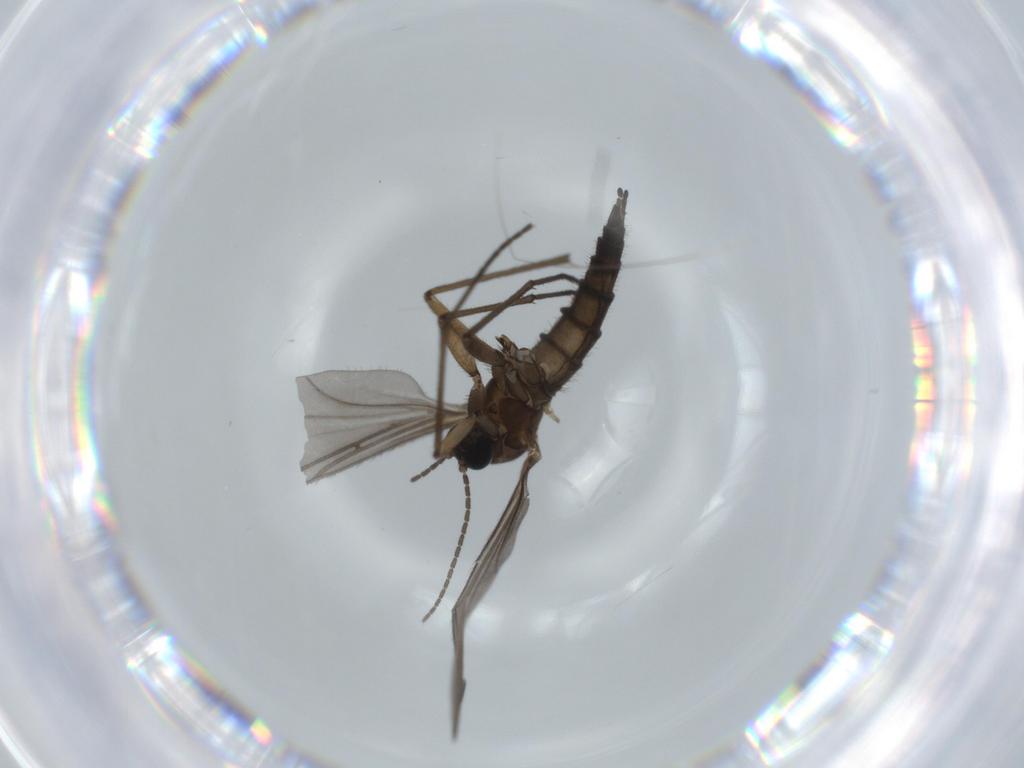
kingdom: Animalia
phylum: Arthropoda
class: Insecta
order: Diptera
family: Sciaridae
